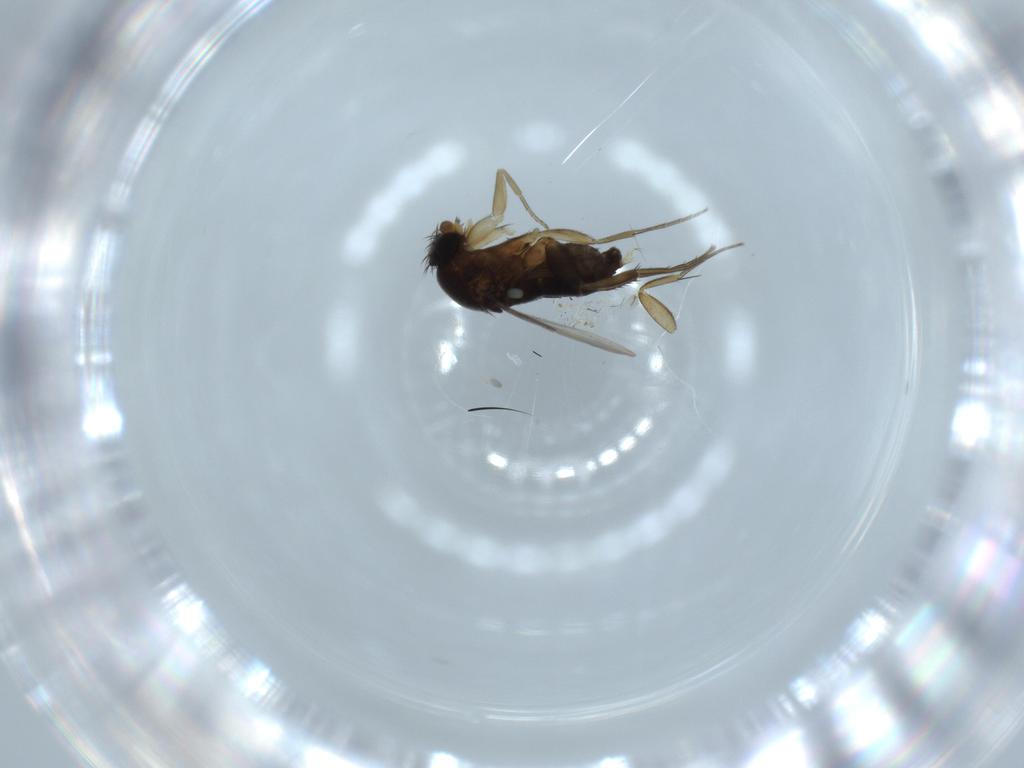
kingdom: Animalia
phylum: Arthropoda
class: Insecta
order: Diptera
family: Phoridae
